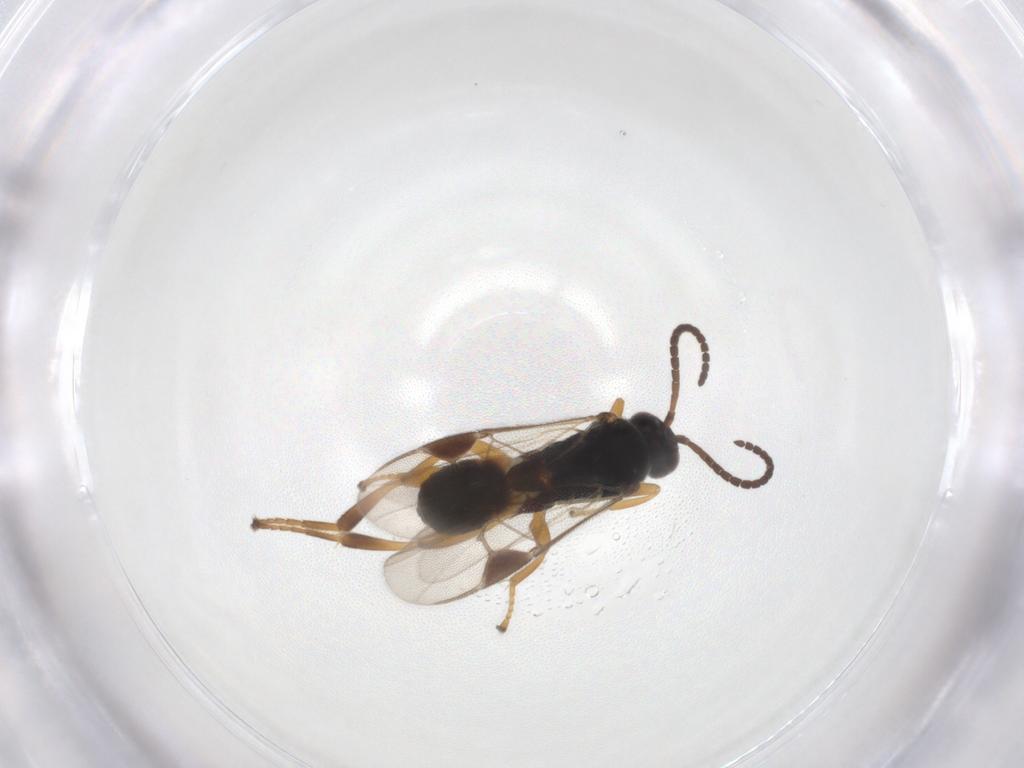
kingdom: Animalia
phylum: Arthropoda
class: Insecta
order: Hymenoptera
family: Braconidae
